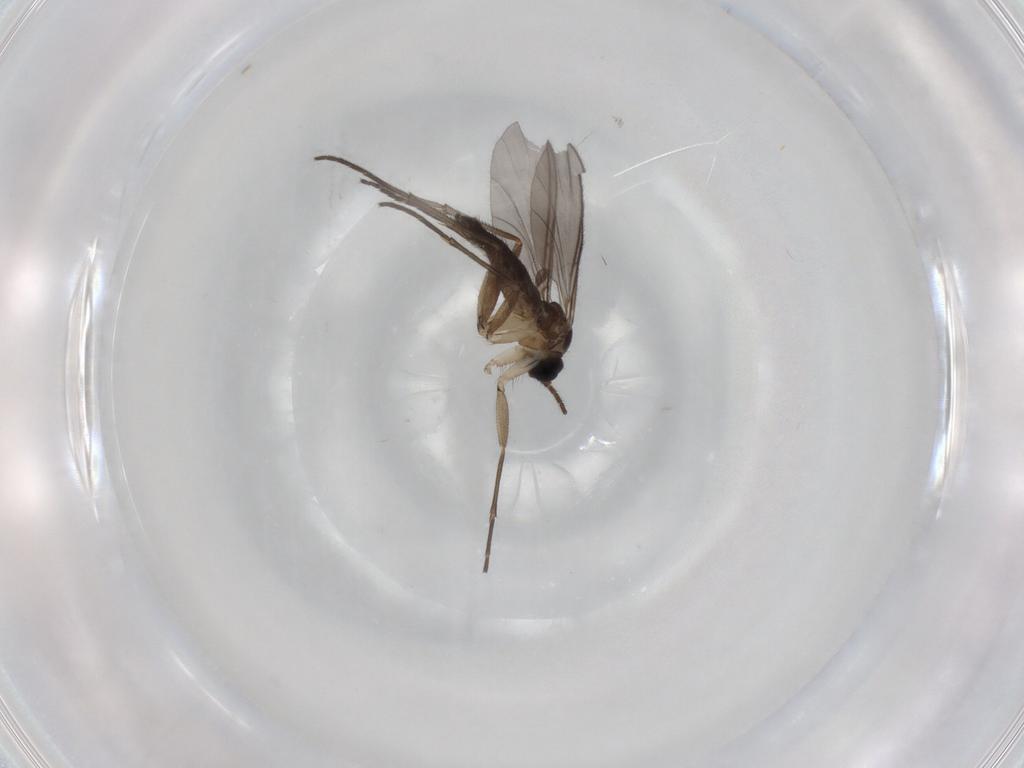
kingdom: Animalia
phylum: Arthropoda
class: Insecta
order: Diptera
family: Sciaridae
